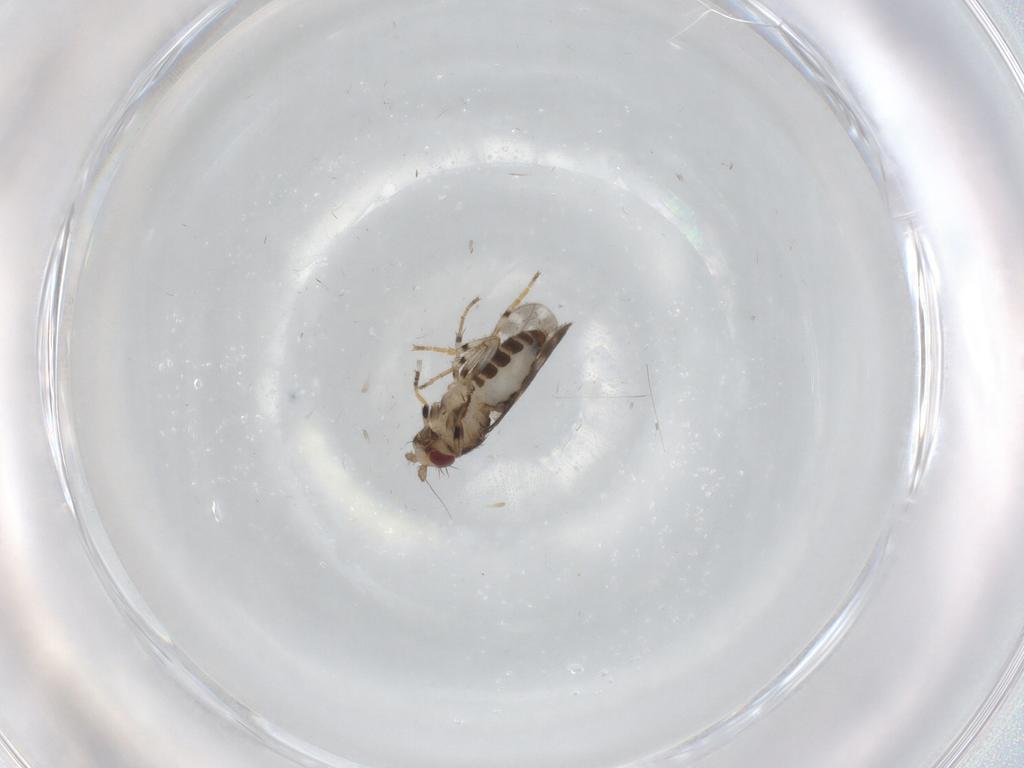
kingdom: Animalia
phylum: Arthropoda
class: Insecta
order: Diptera
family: Sphaeroceridae
